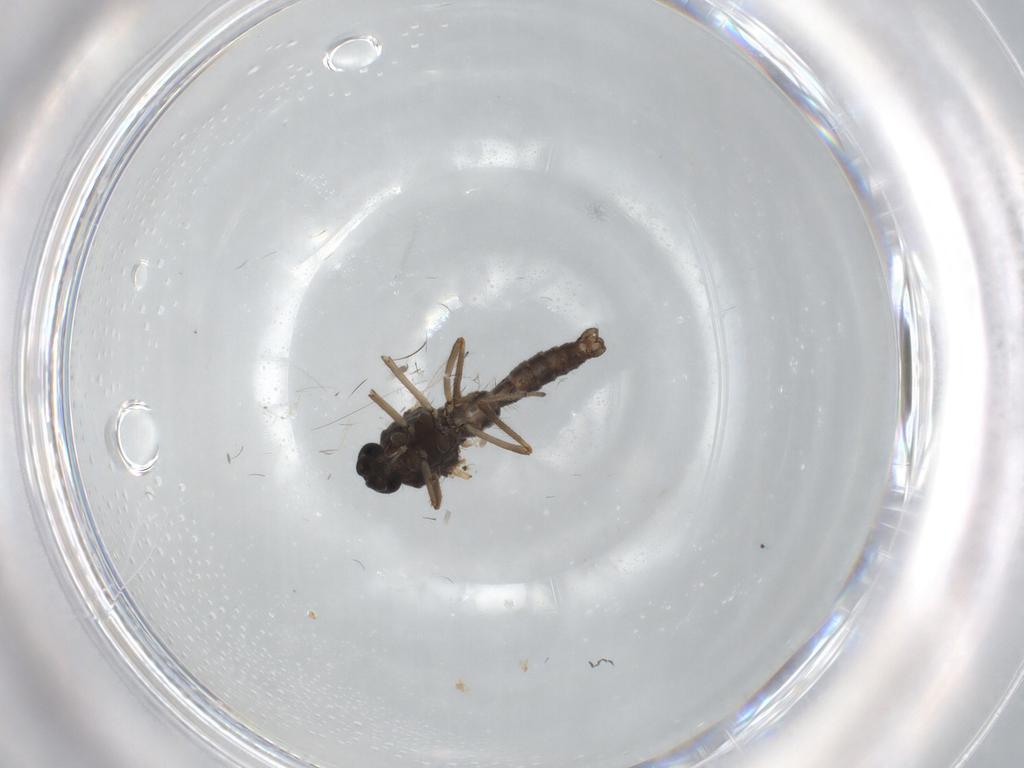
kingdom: Animalia
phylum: Arthropoda
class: Insecta
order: Diptera
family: Ceratopogonidae
